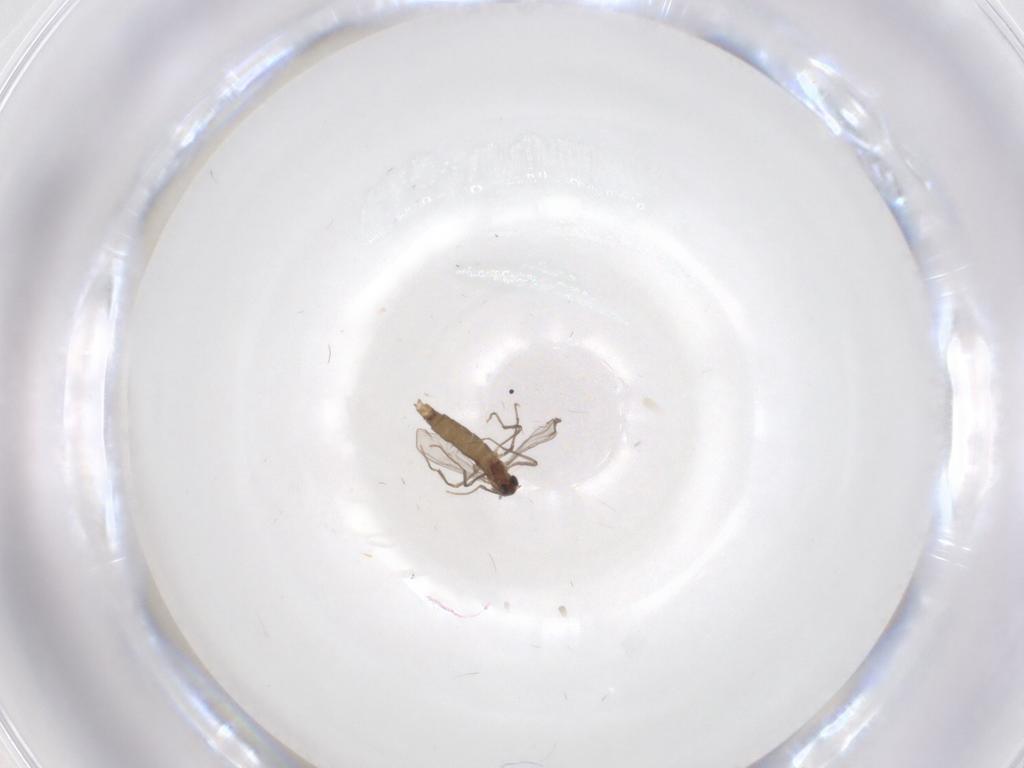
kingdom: Animalia
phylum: Arthropoda
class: Insecta
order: Diptera
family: Chironomidae
